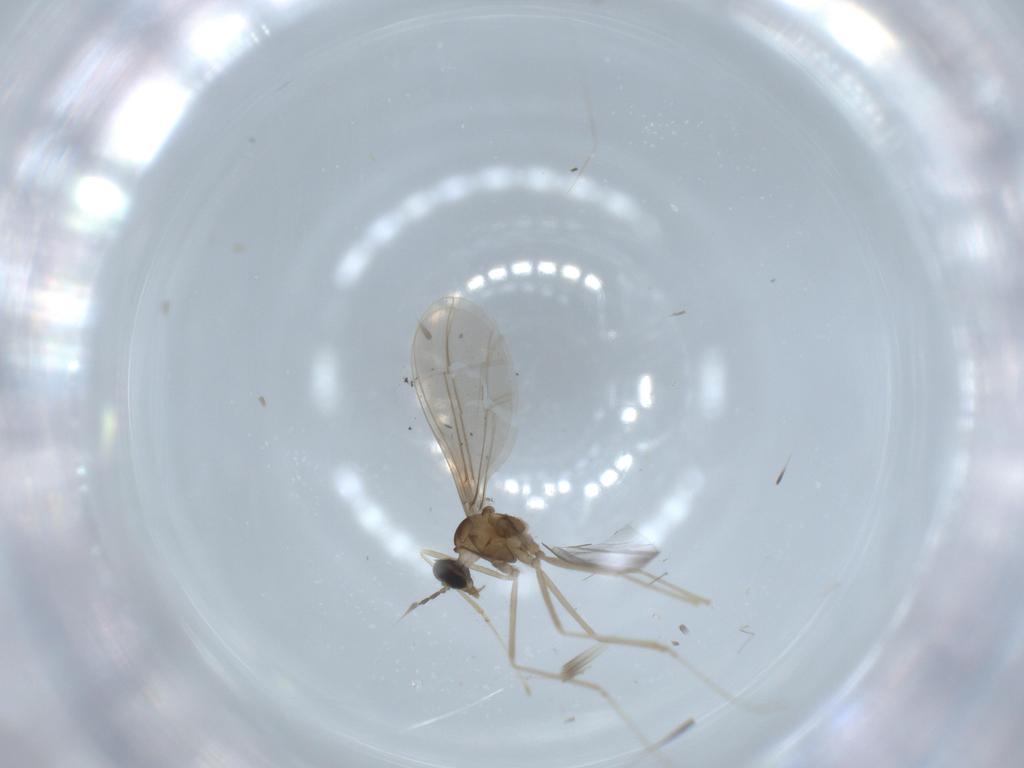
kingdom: Animalia
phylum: Arthropoda
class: Insecta
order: Diptera
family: Cecidomyiidae
